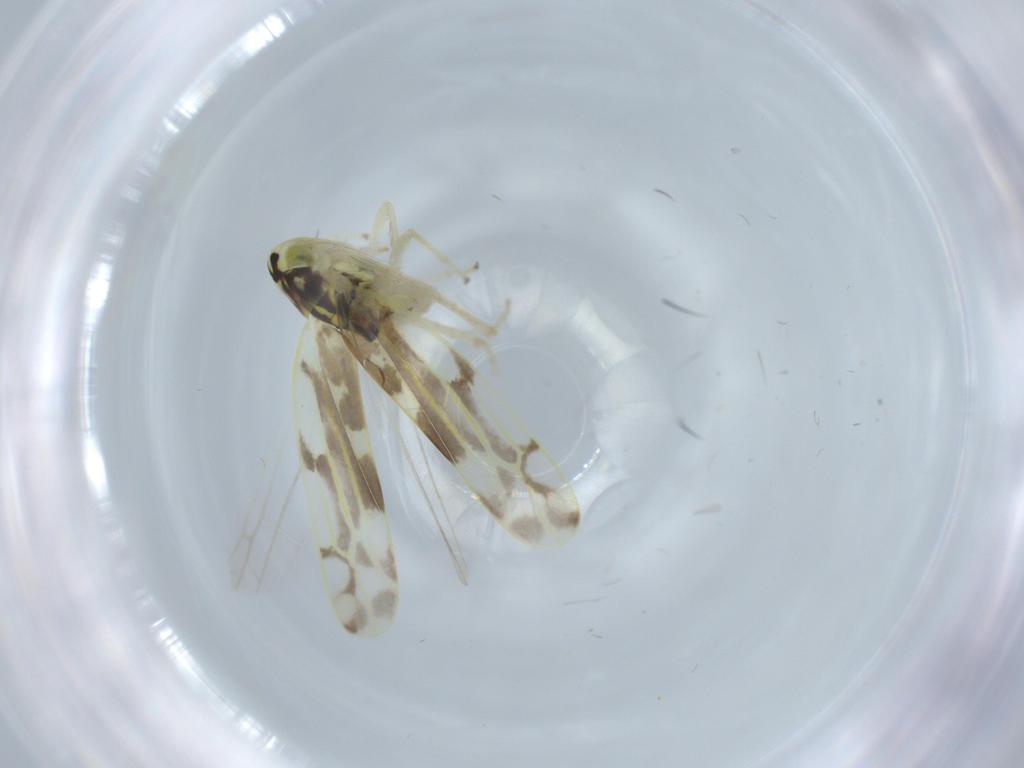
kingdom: Animalia
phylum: Arthropoda
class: Insecta
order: Hemiptera
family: Cicadellidae
